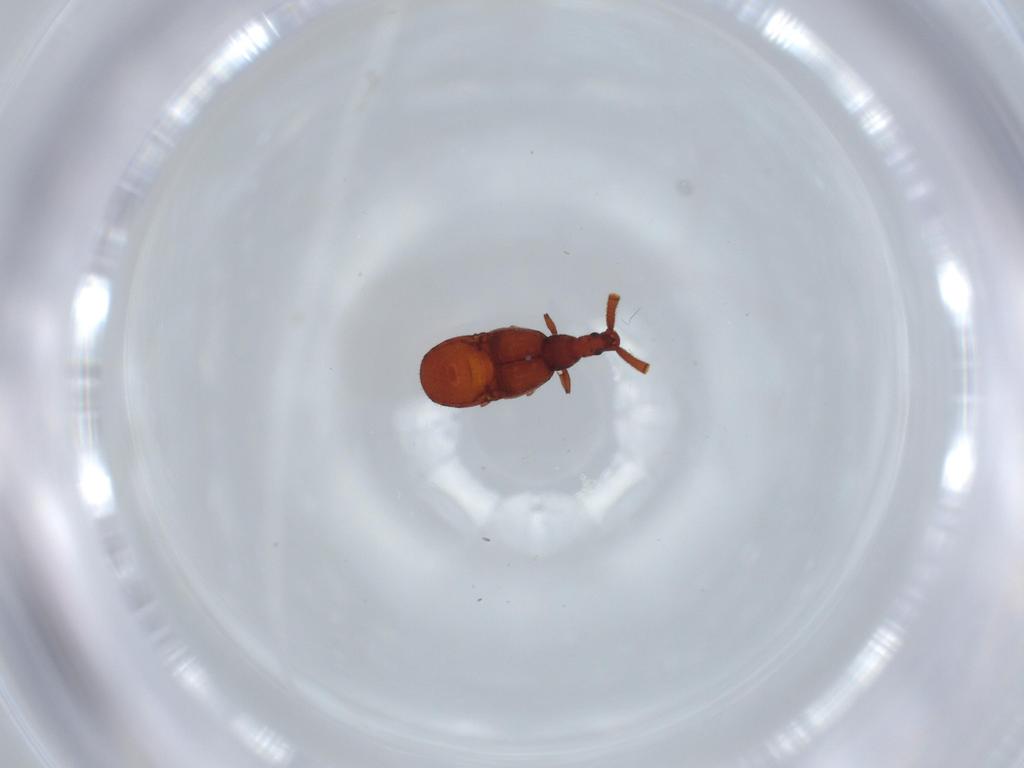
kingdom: Animalia
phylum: Arthropoda
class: Insecta
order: Coleoptera
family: Staphylinidae
